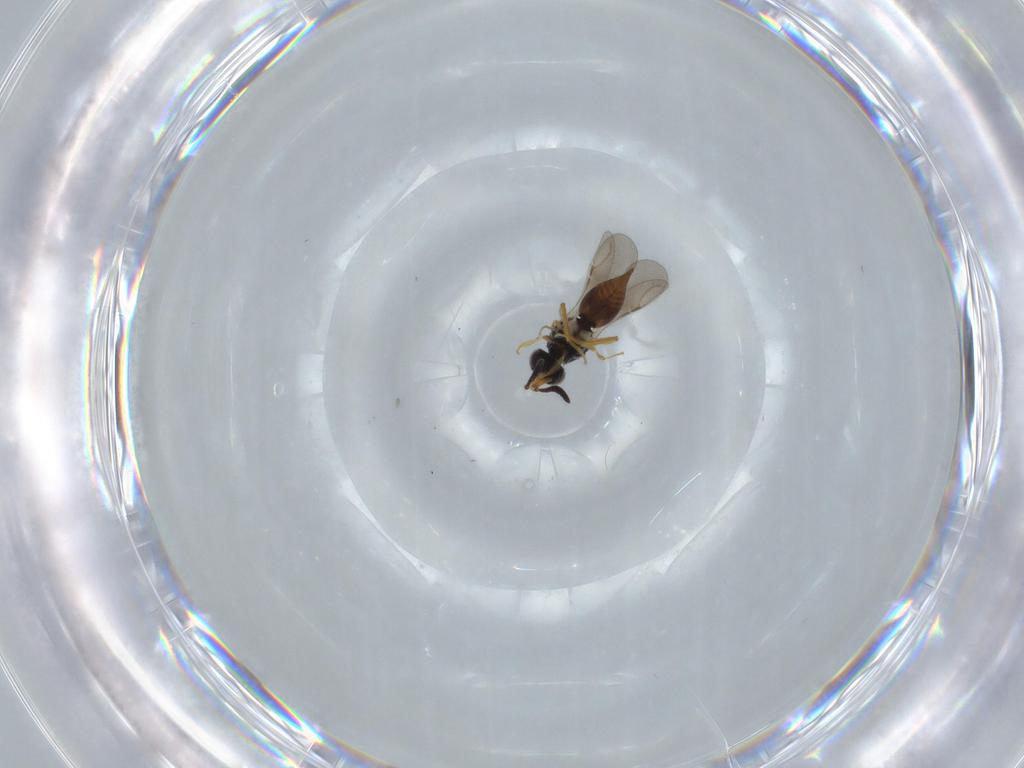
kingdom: Animalia
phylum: Arthropoda
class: Insecta
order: Hymenoptera
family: Ceraphronidae
